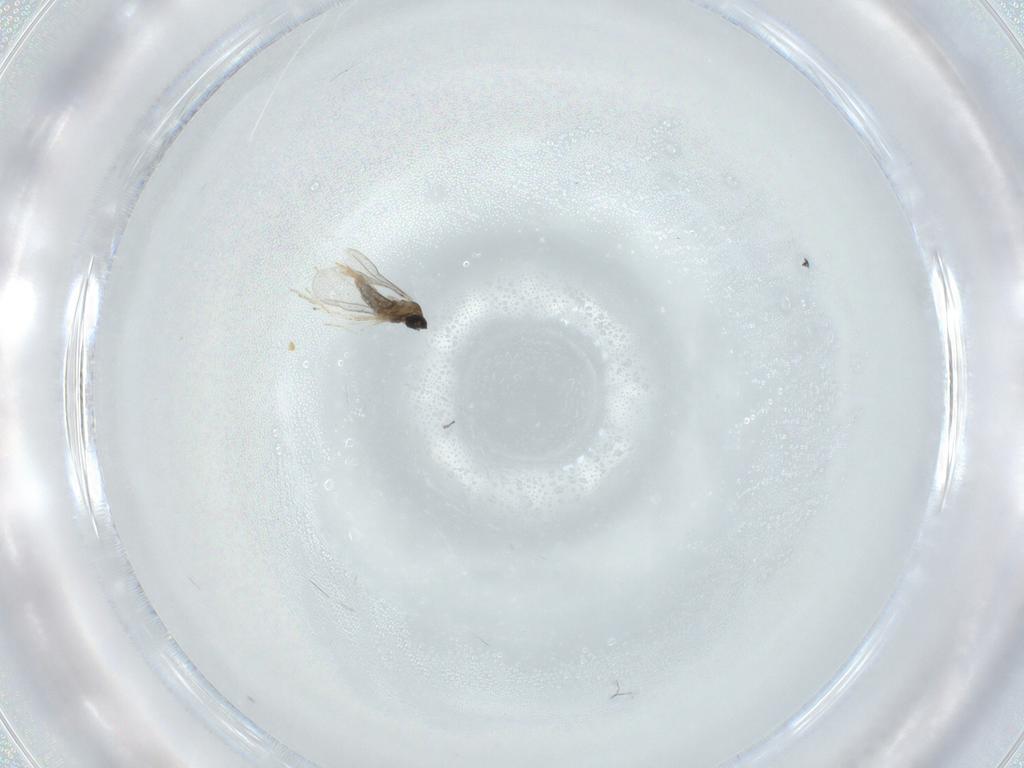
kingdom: Animalia
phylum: Arthropoda
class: Insecta
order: Diptera
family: Cecidomyiidae
